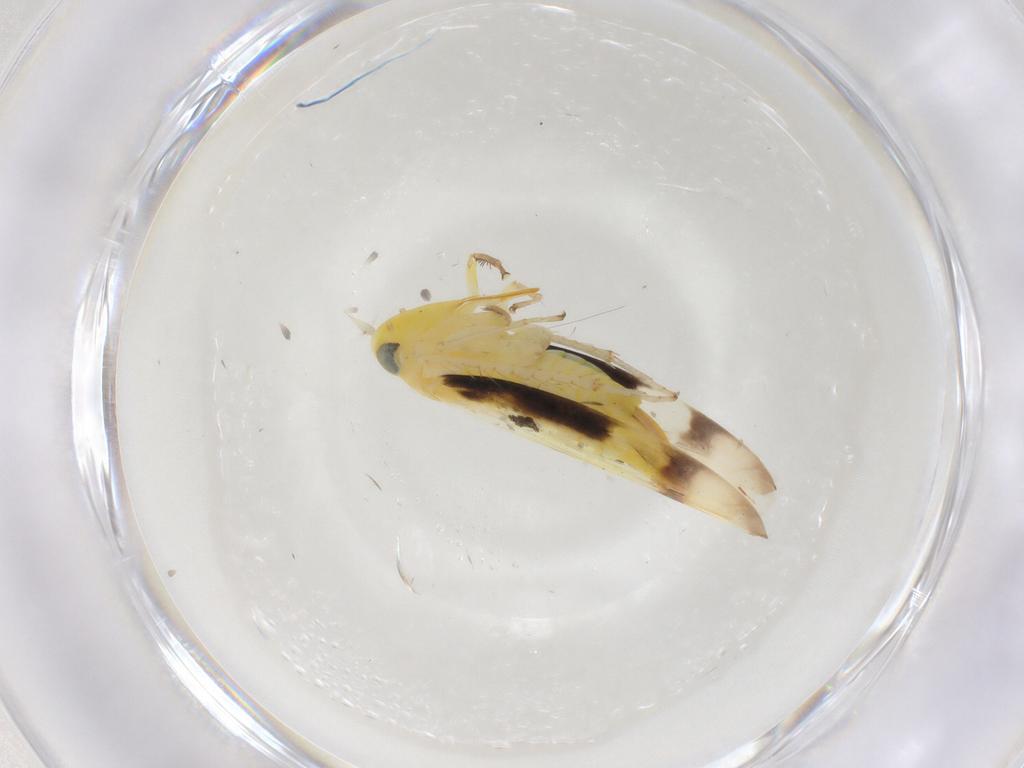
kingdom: Animalia
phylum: Arthropoda
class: Insecta
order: Hemiptera
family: Cicadellidae
